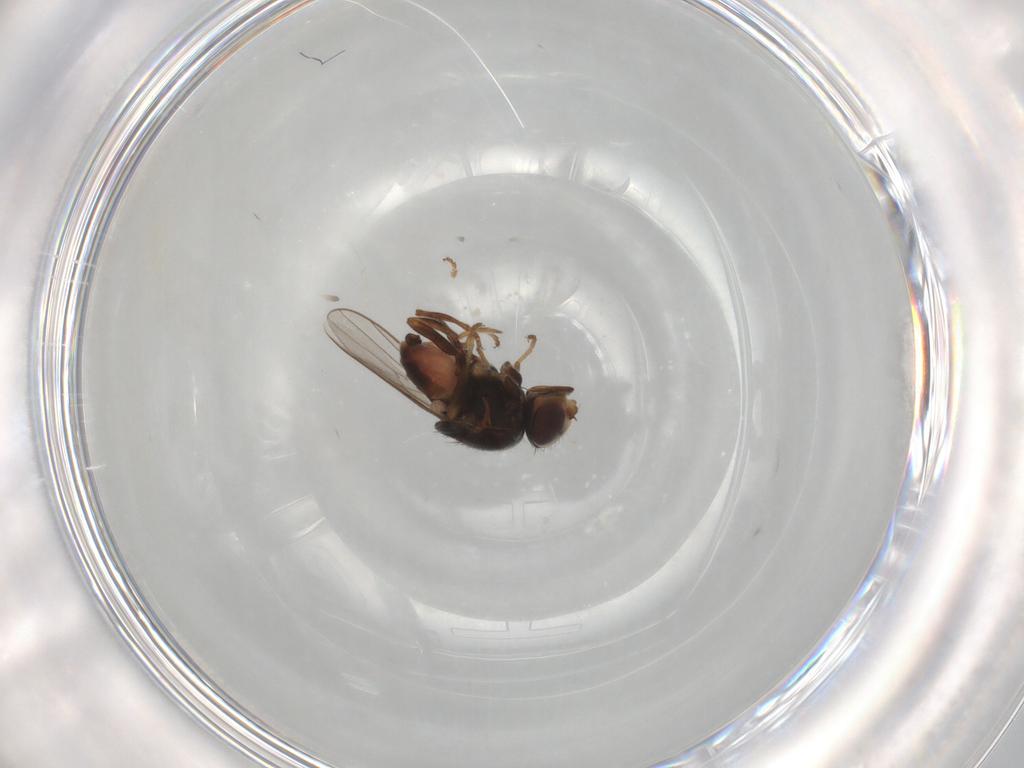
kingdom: Animalia
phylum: Arthropoda
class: Insecta
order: Diptera
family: Chloropidae
